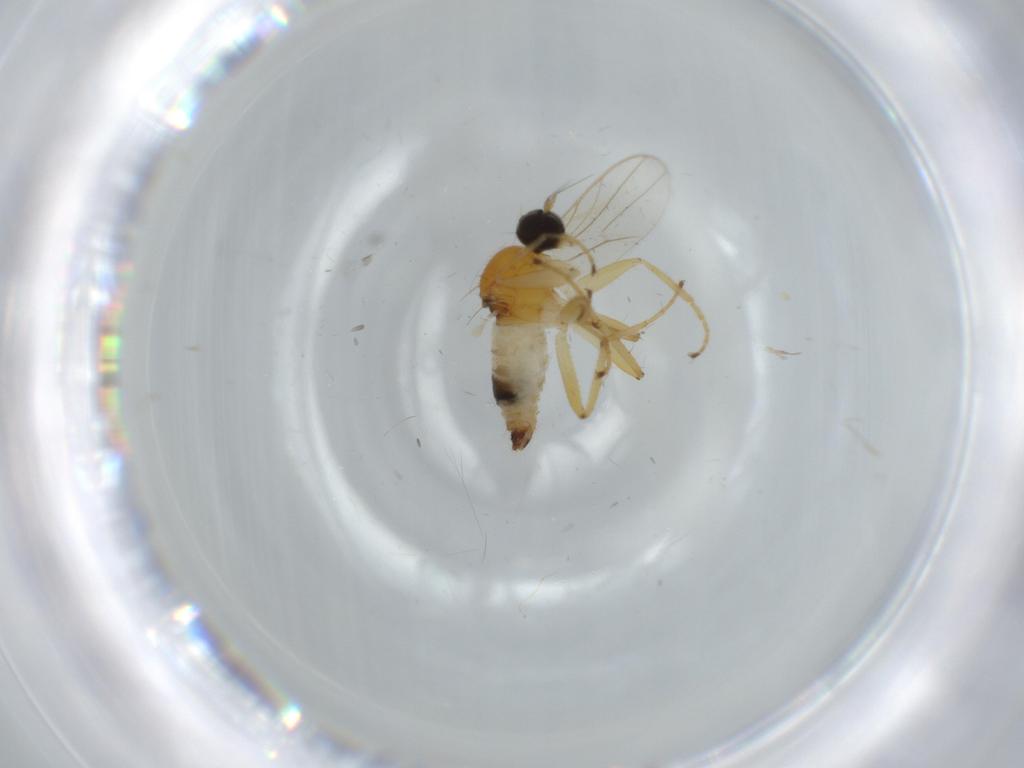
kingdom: Animalia
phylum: Arthropoda
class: Insecta
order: Diptera
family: Hybotidae
